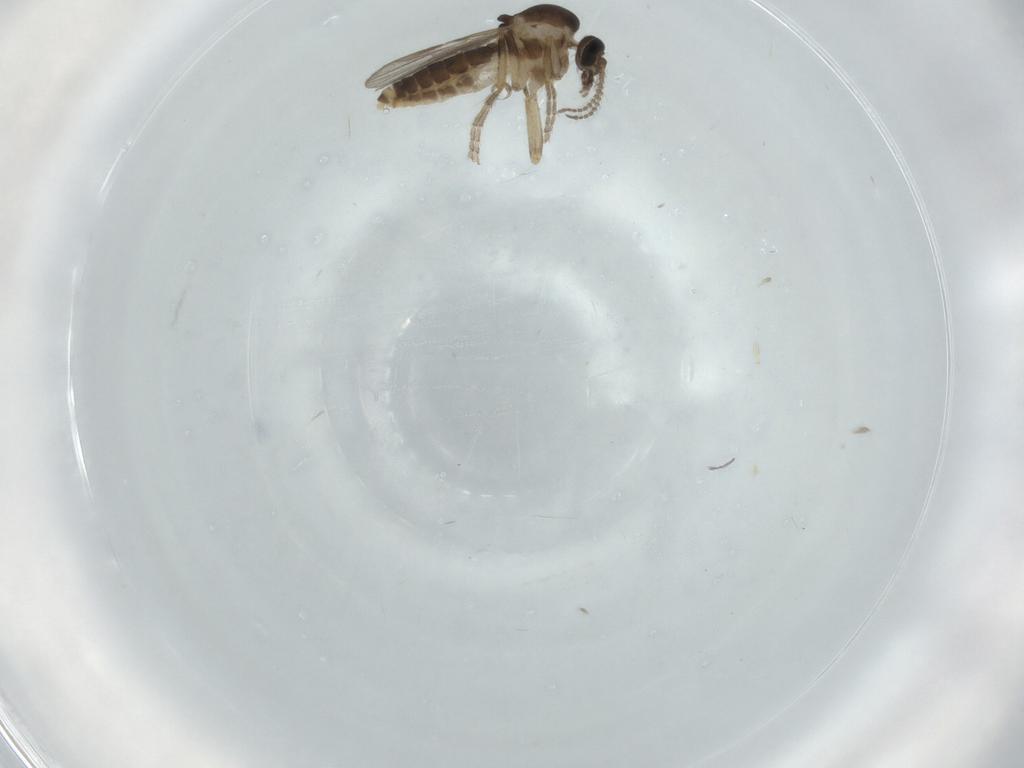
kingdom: Animalia
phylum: Arthropoda
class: Insecta
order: Diptera
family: Ceratopogonidae
